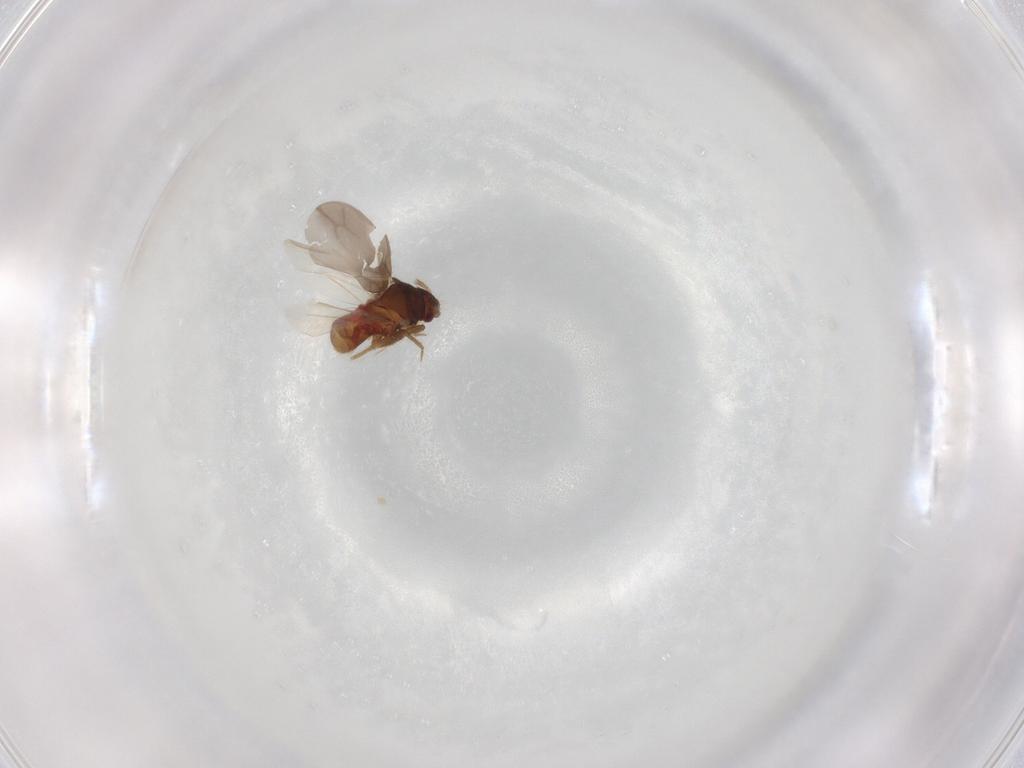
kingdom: Animalia
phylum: Arthropoda
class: Insecta
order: Hemiptera
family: Ceratocombidae
